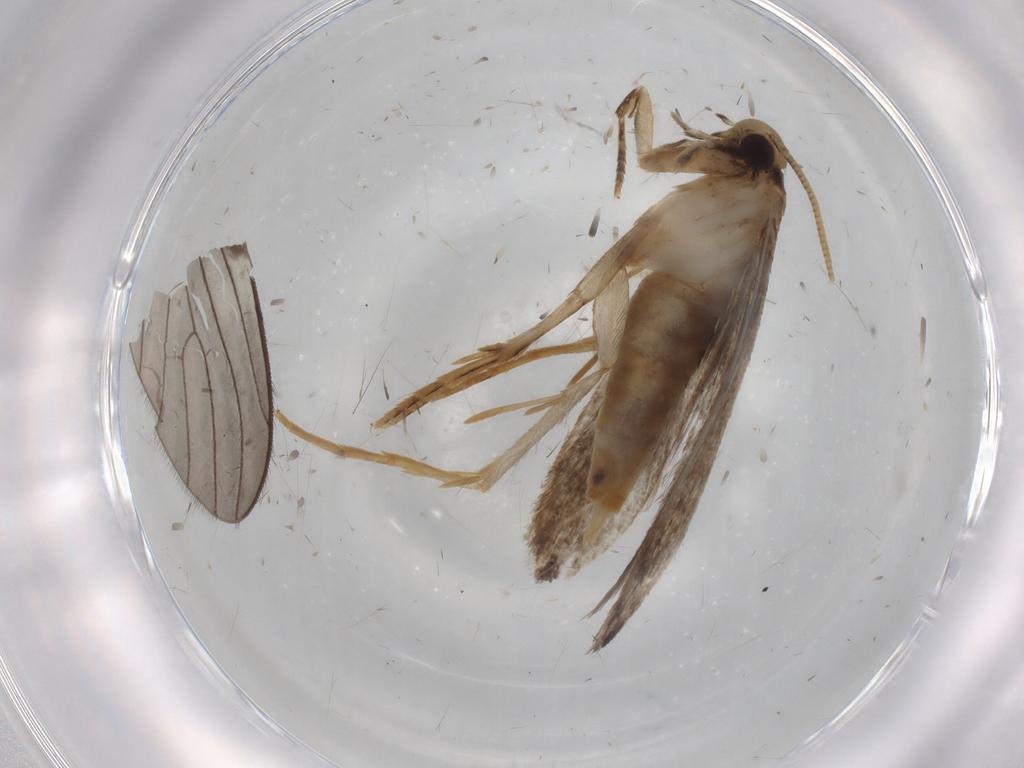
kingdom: Animalia
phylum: Arthropoda
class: Insecta
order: Lepidoptera
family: Tineidae
